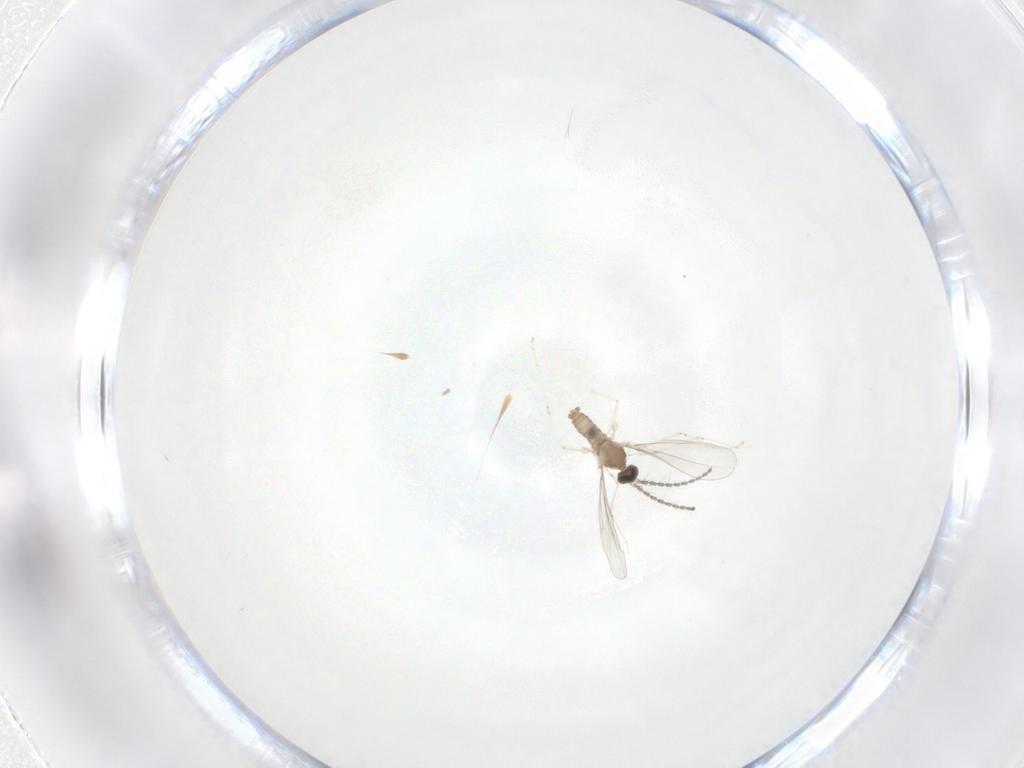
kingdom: Animalia
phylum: Arthropoda
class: Insecta
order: Diptera
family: Cecidomyiidae
